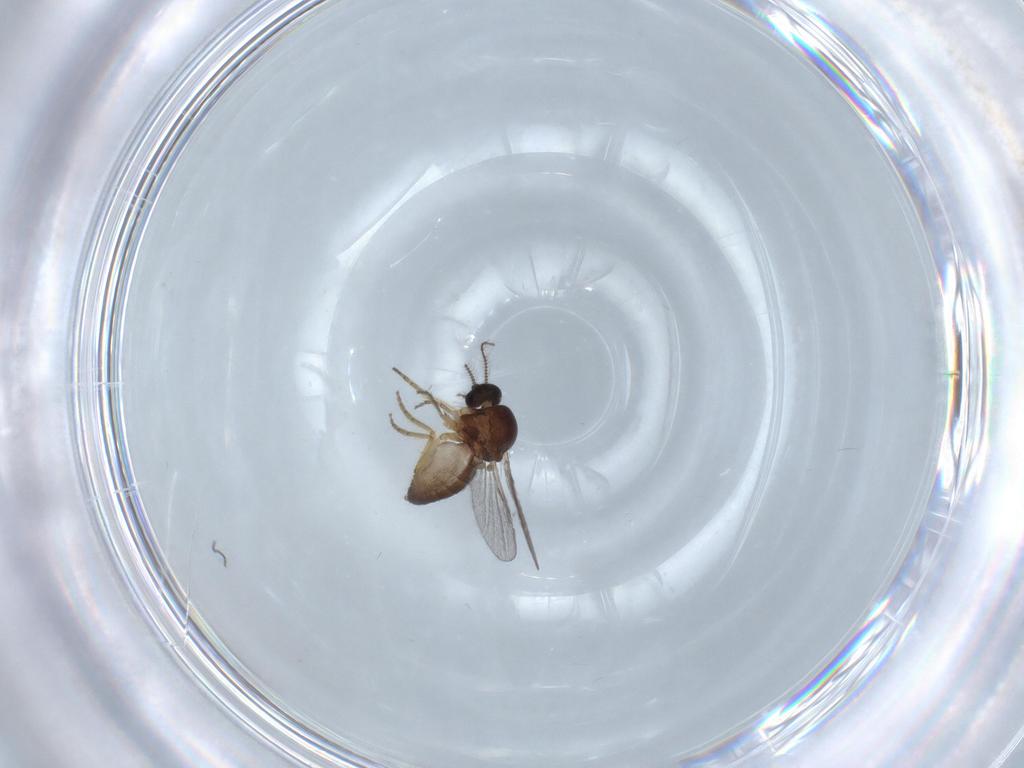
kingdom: Animalia
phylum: Arthropoda
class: Insecta
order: Diptera
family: Ceratopogonidae
